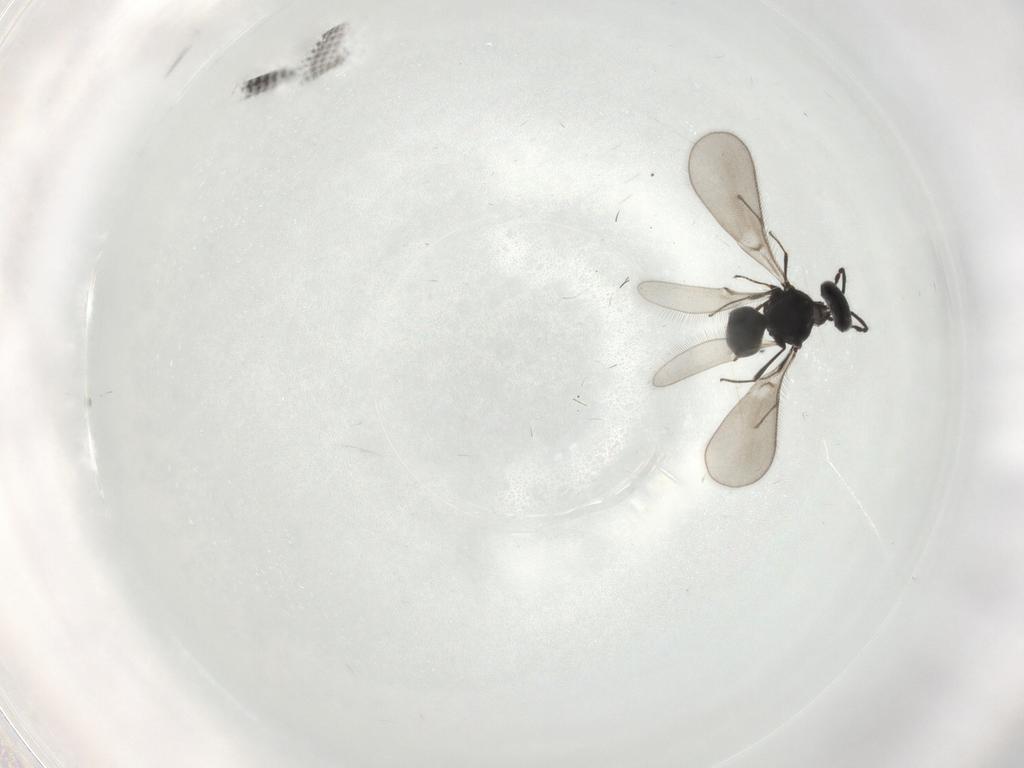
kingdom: Animalia
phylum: Arthropoda
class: Insecta
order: Hymenoptera
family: Scelionidae
